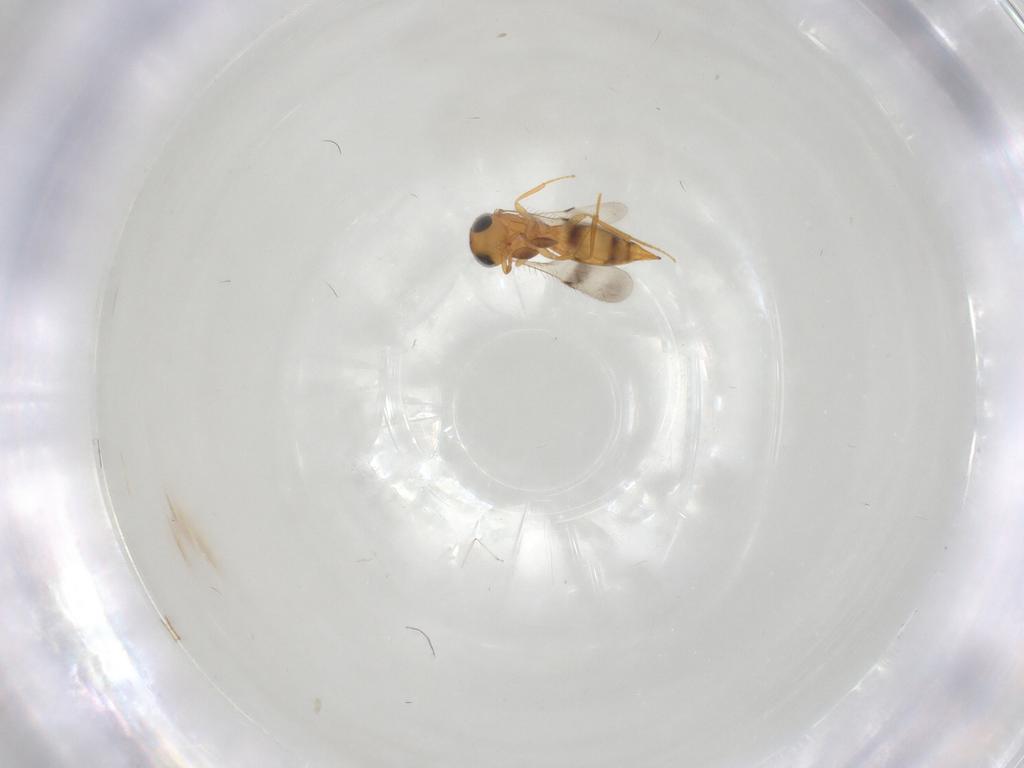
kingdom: Animalia
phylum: Arthropoda
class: Insecta
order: Hymenoptera
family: Scelionidae
